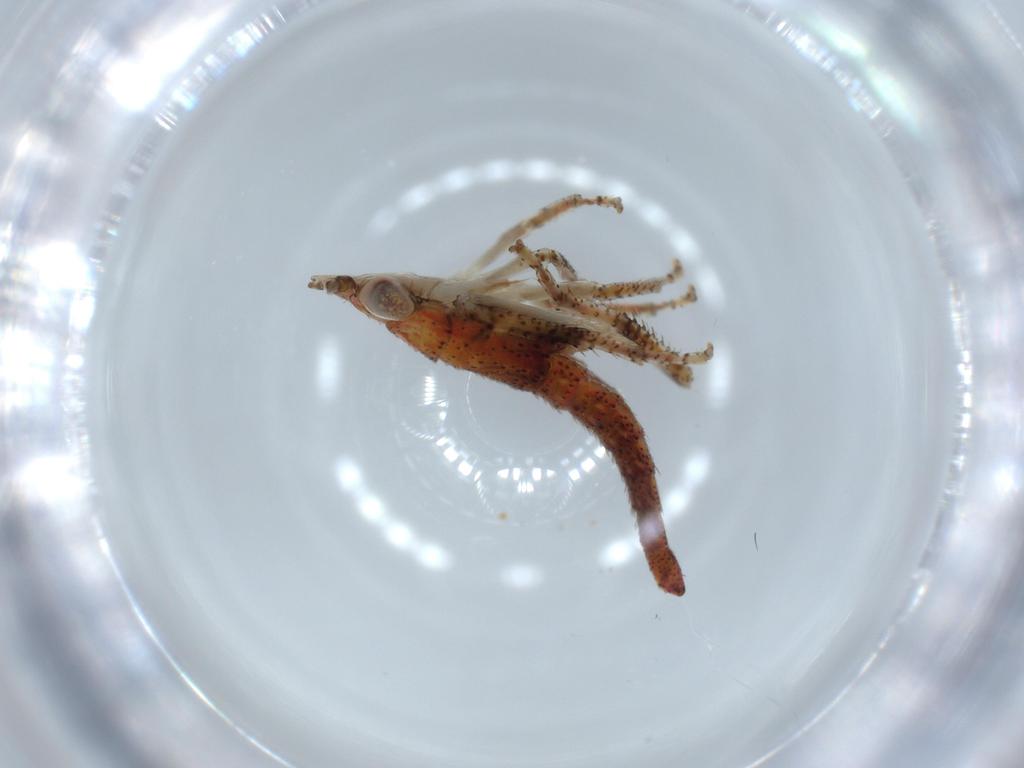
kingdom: Animalia
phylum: Arthropoda
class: Insecta
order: Hemiptera
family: Cicadellidae
